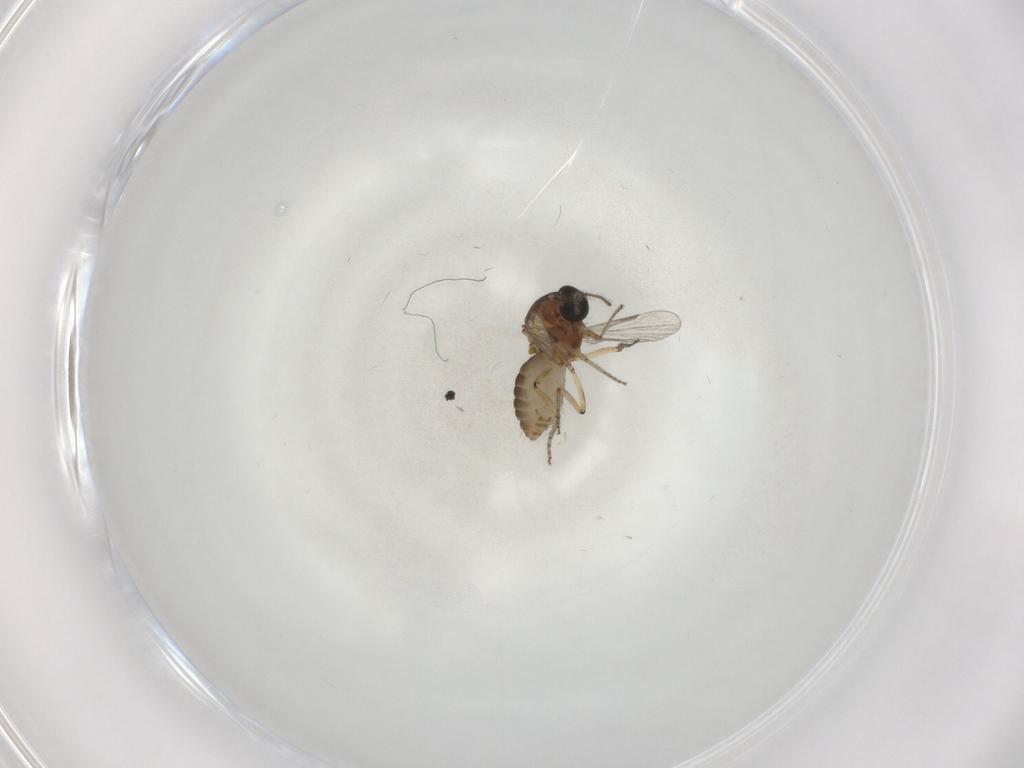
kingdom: Animalia
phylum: Arthropoda
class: Insecta
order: Diptera
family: Ceratopogonidae
